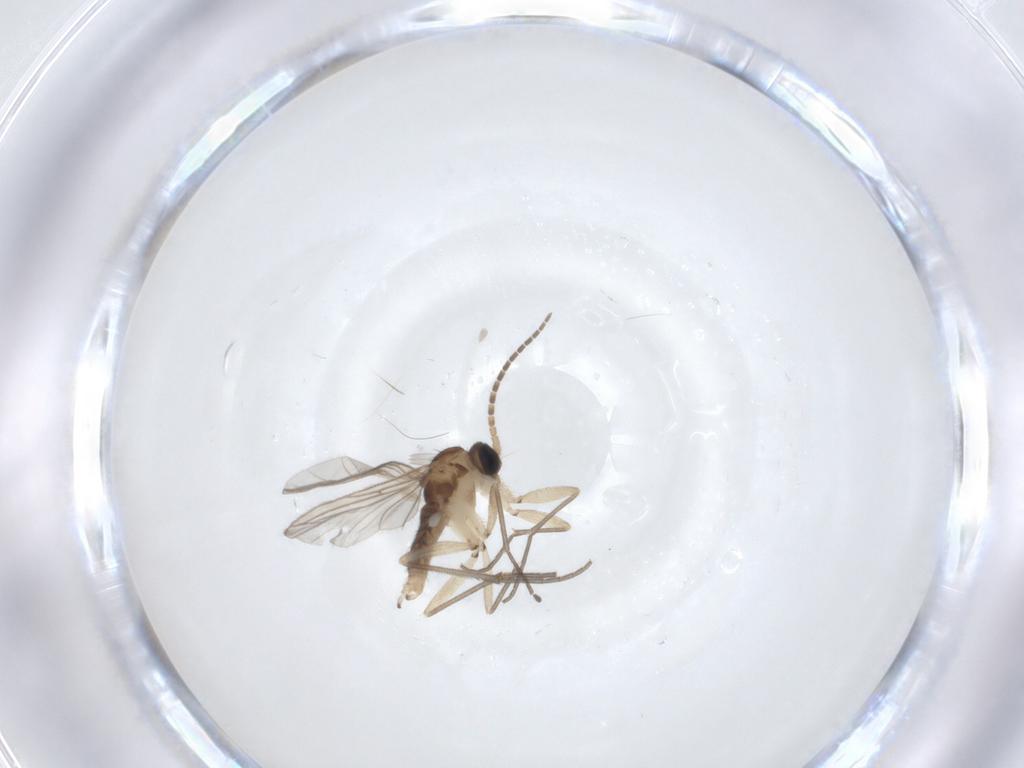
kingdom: Animalia
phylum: Arthropoda
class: Insecta
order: Diptera
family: Sciaridae
